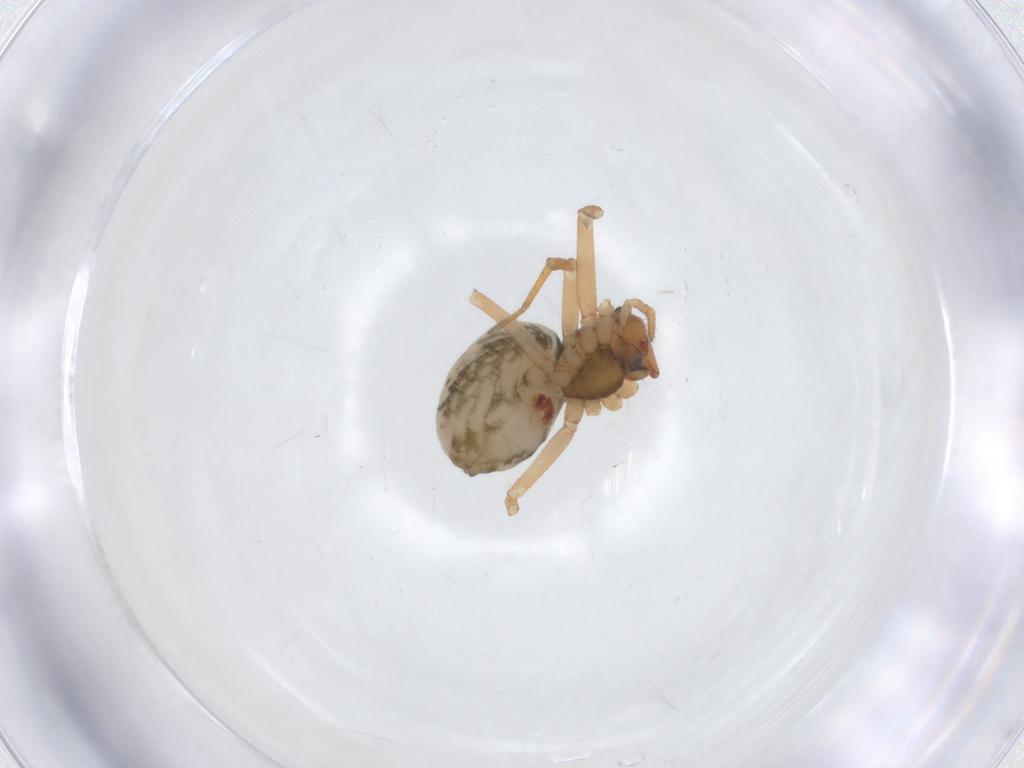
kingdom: Animalia
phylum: Arthropoda
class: Arachnida
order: Araneae
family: Theridiidae
